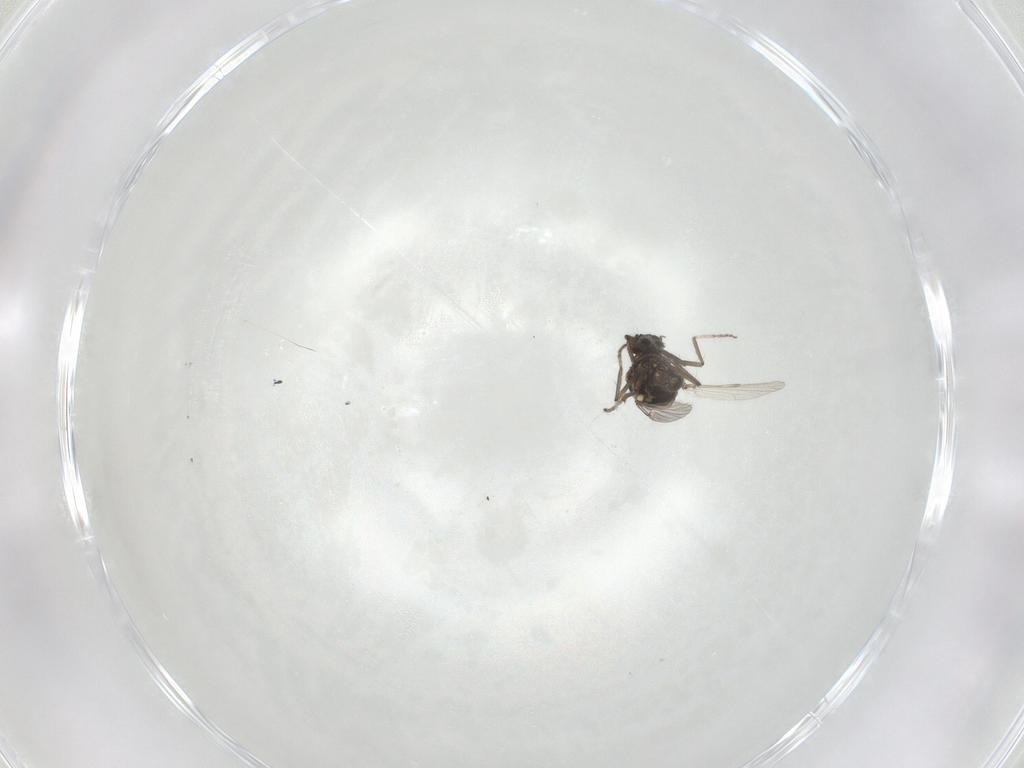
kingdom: Animalia
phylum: Arthropoda
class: Insecta
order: Diptera
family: Ceratopogonidae
